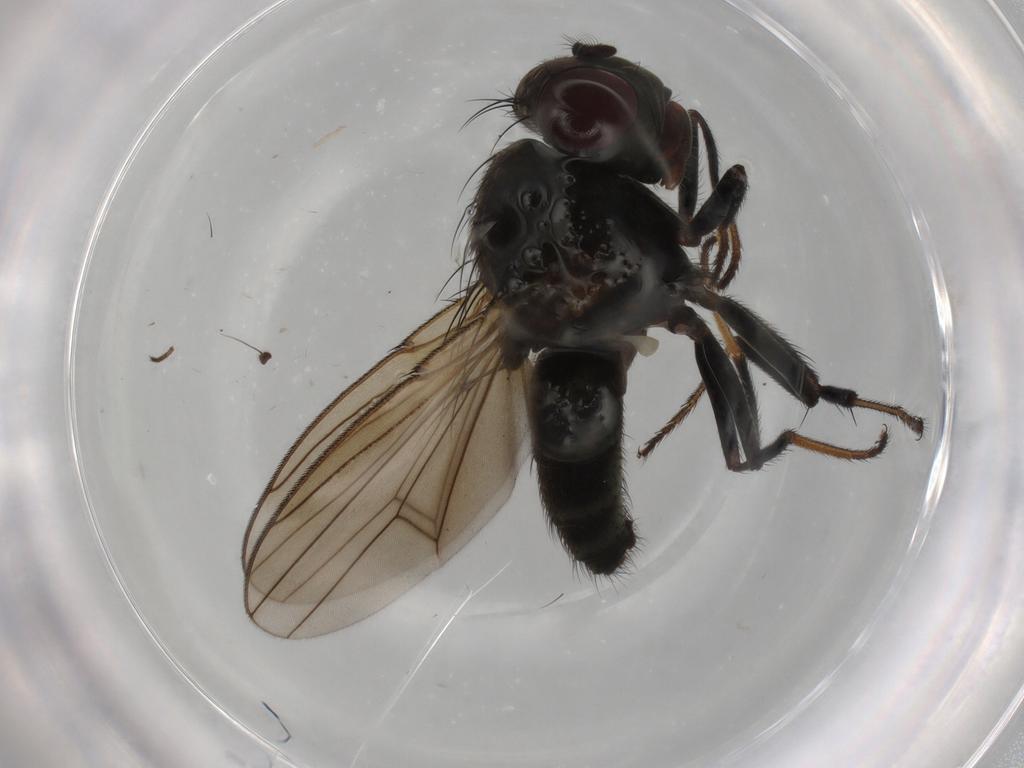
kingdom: Animalia
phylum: Arthropoda
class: Insecta
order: Diptera
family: Ephydridae
